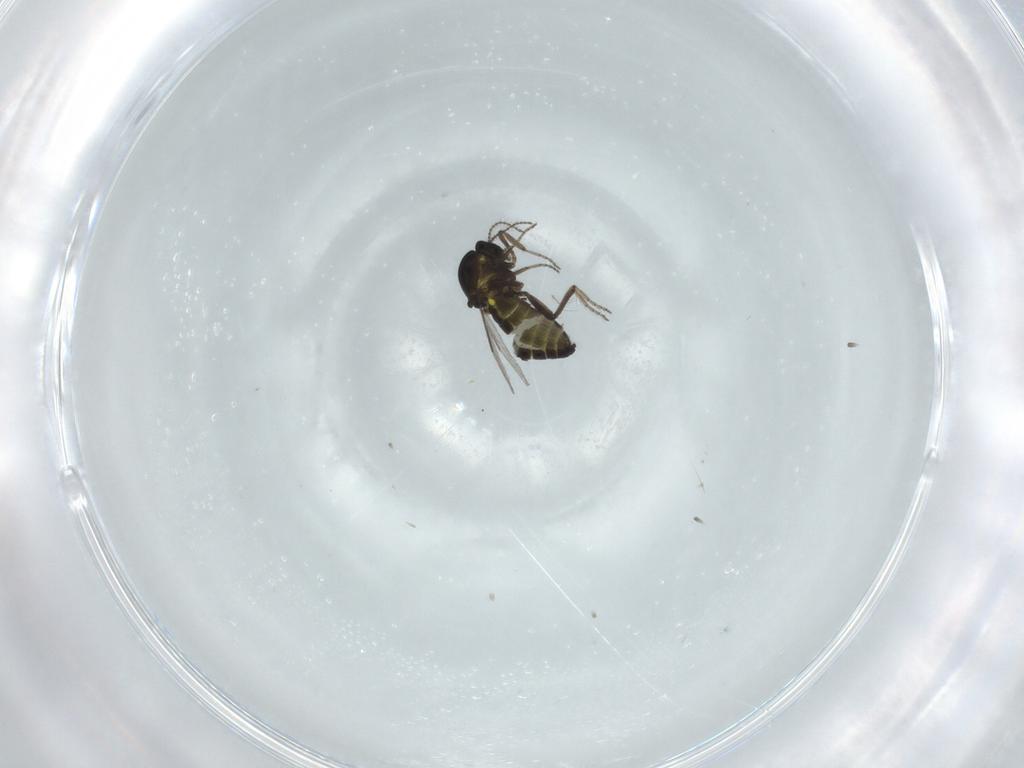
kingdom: Animalia
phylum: Arthropoda
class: Insecta
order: Diptera
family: Ceratopogonidae
